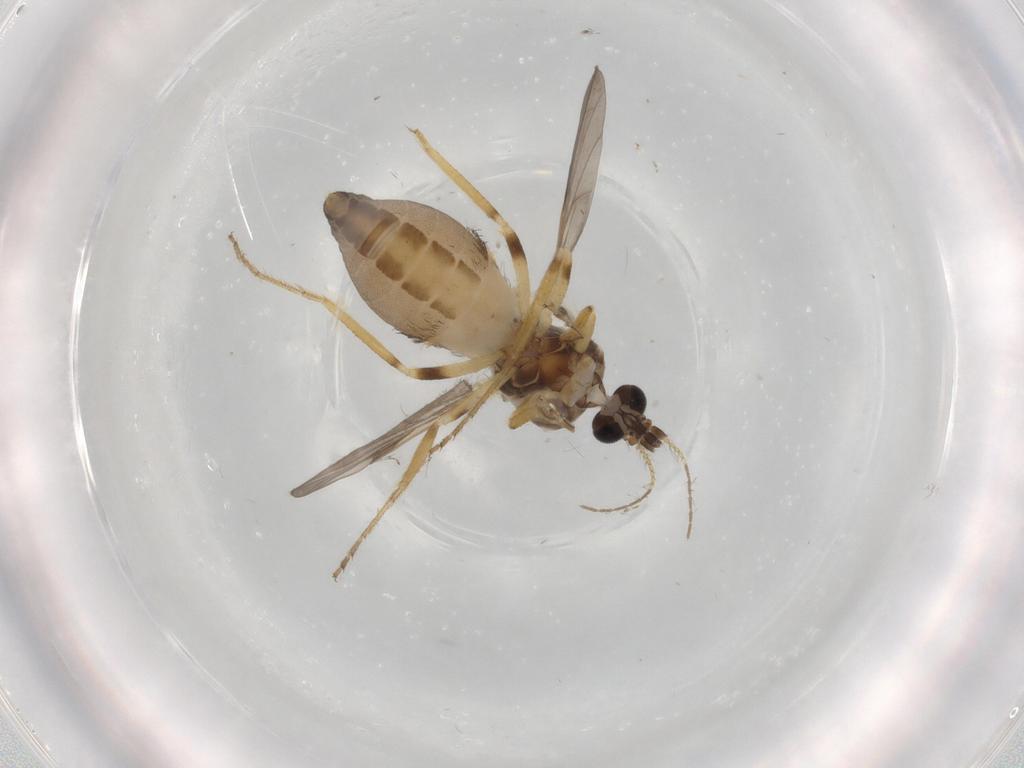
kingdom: Animalia
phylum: Arthropoda
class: Insecta
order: Diptera
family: Ceratopogonidae
